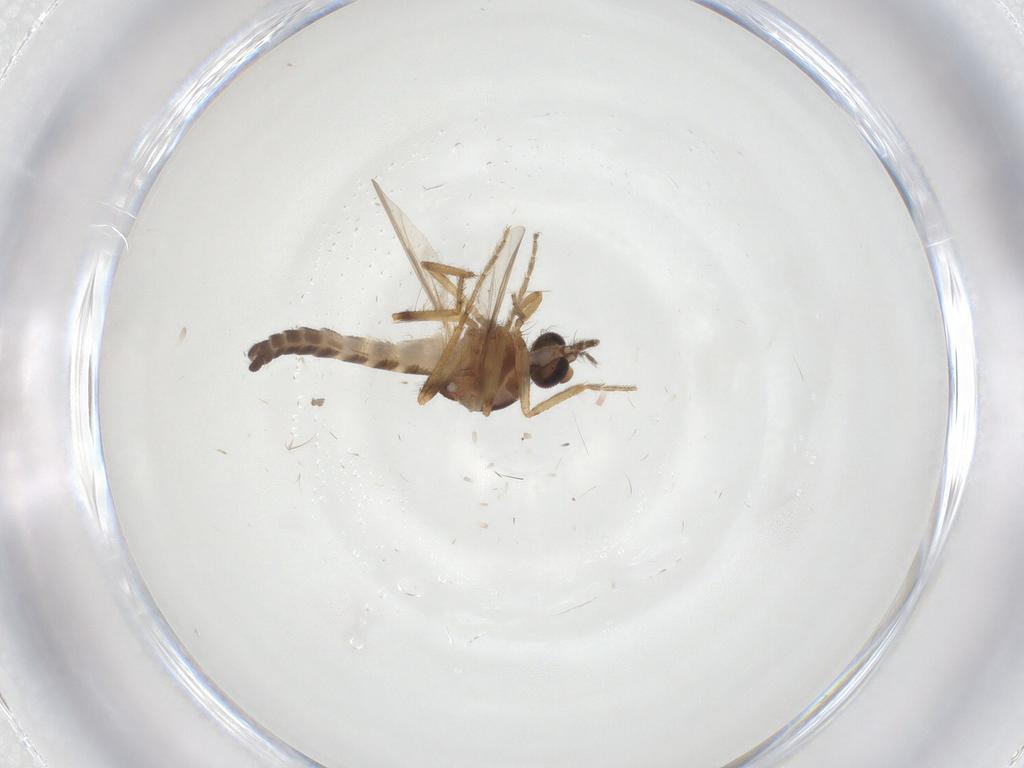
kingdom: Animalia
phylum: Arthropoda
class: Insecta
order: Diptera
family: Ceratopogonidae
